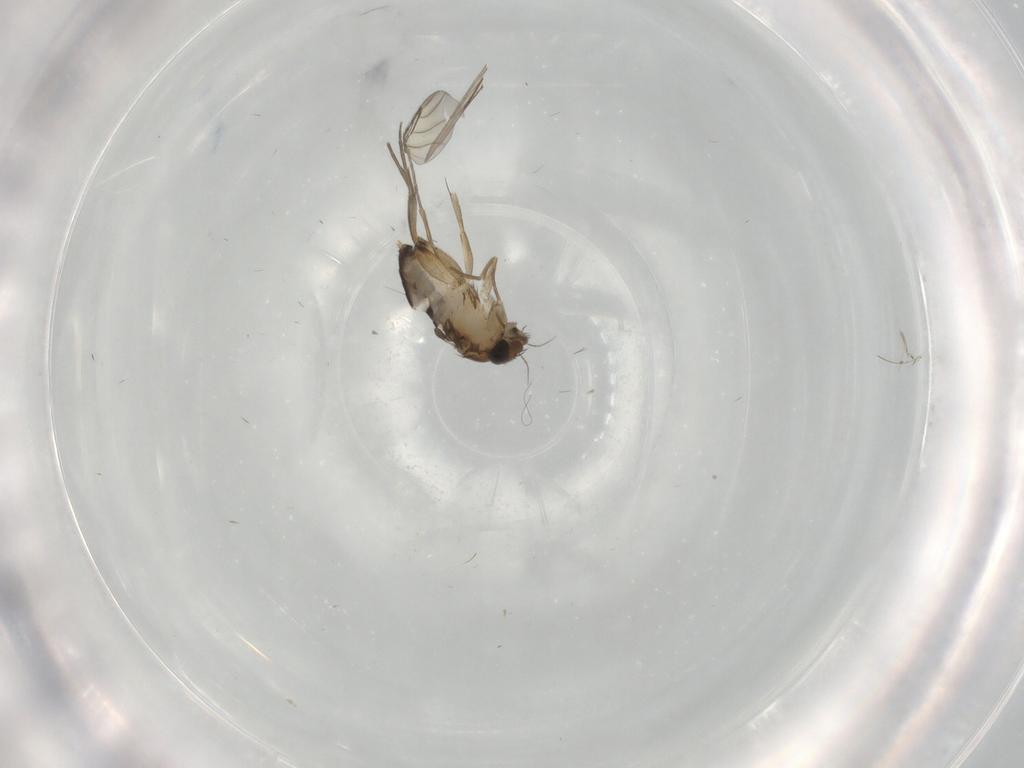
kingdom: Animalia
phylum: Arthropoda
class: Insecta
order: Diptera
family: Phoridae
